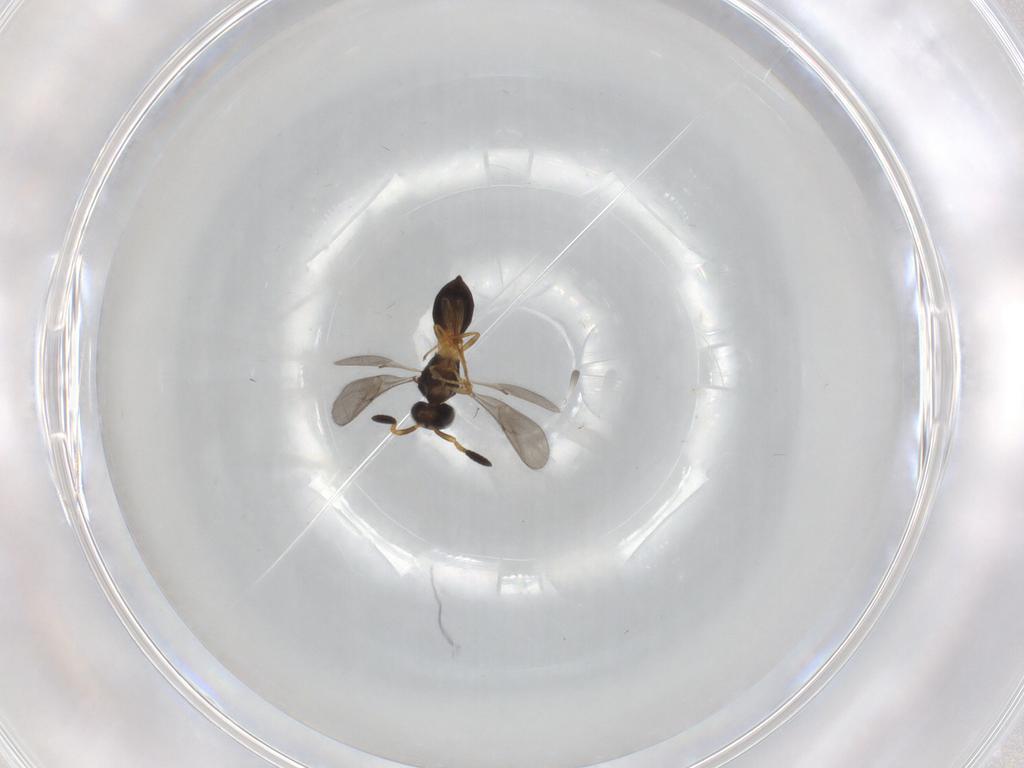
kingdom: Animalia
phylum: Arthropoda
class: Insecta
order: Hymenoptera
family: Scelionidae
